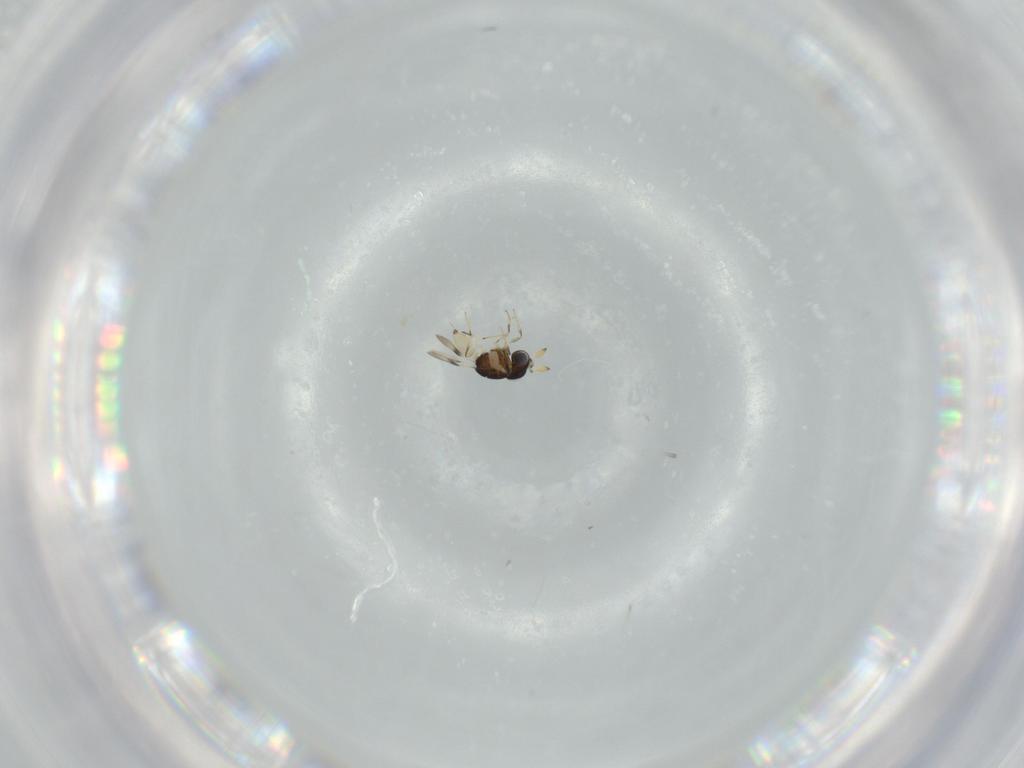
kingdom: Animalia
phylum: Arthropoda
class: Insecta
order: Hymenoptera
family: Scelionidae
